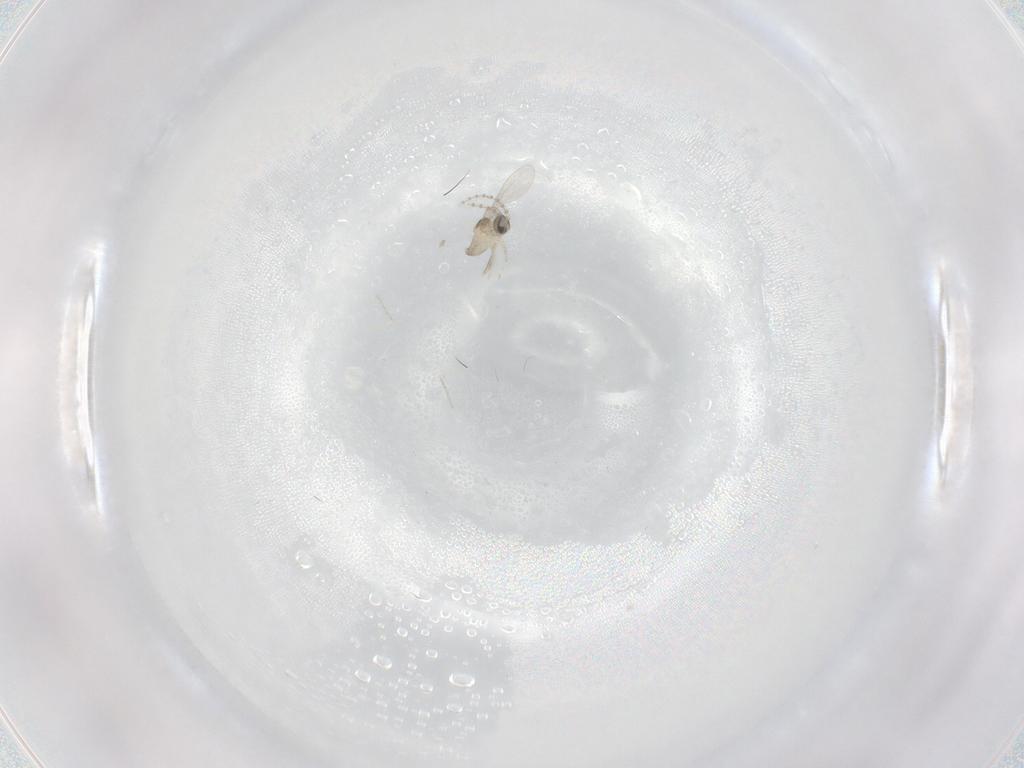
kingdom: Animalia
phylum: Arthropoda
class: Insecta
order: Diptera
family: Cecidomyiidae
